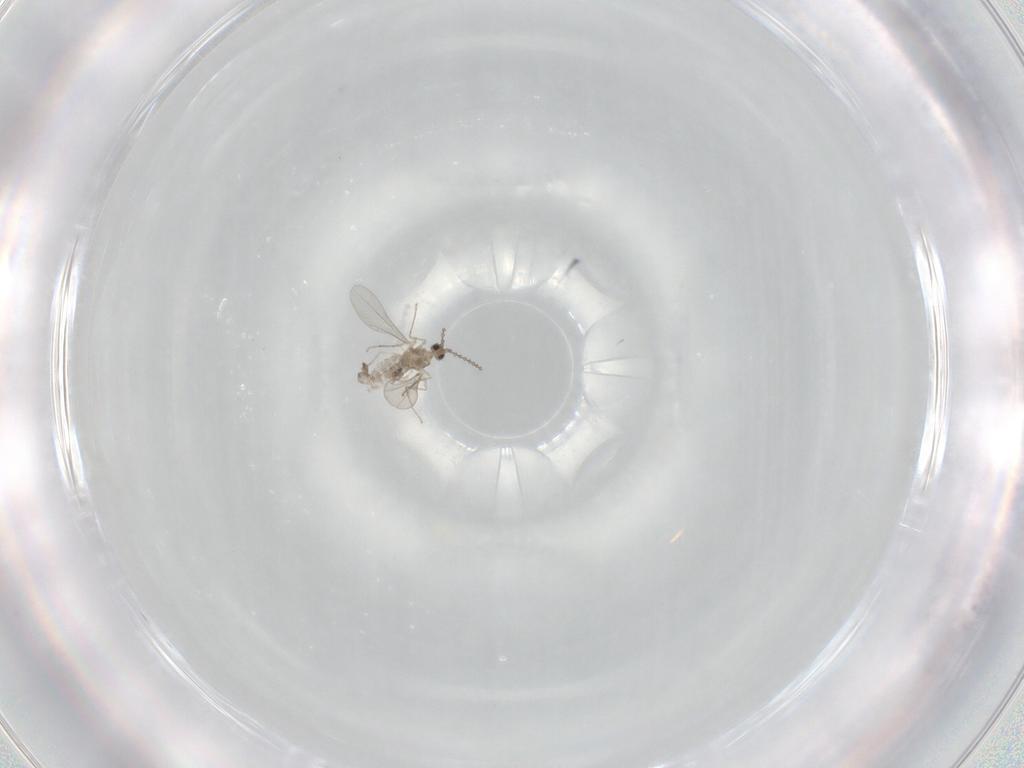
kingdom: Animalia
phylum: Arthropoda
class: Insecta
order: Diptera
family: Cecidomyiidae
